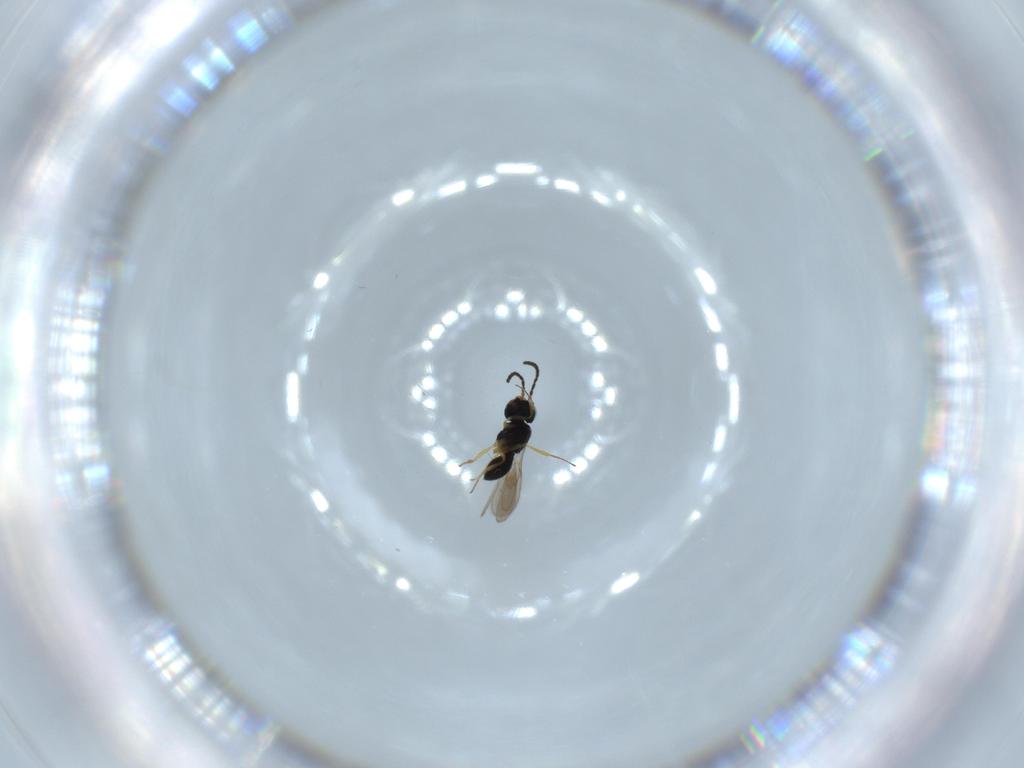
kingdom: Animalia
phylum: Arthropoda
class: Insecta
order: Hymenoptera
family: Scelionidae
